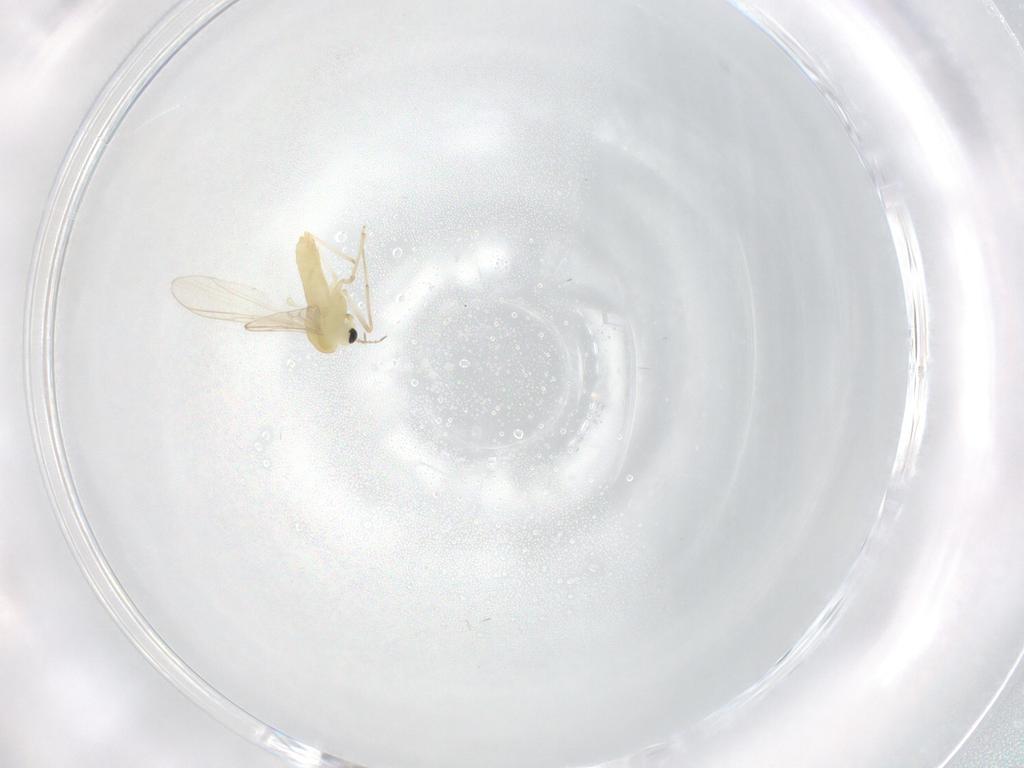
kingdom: Animalia
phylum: Arthropoda
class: Insecta
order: Diptera
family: Chironomidae
